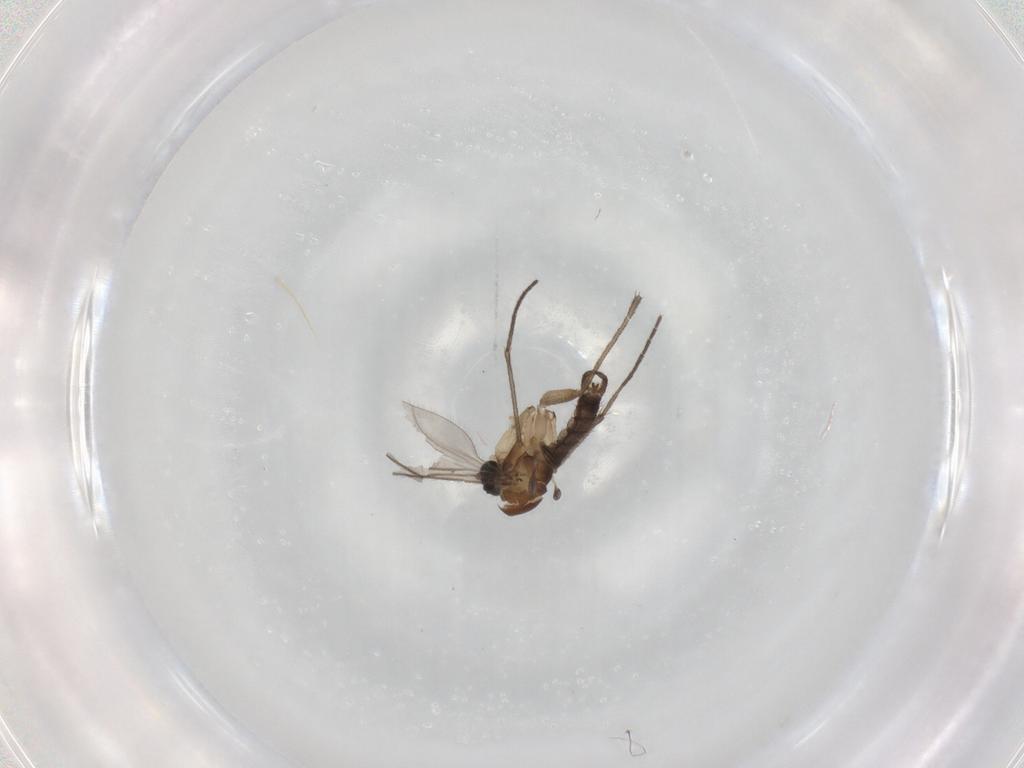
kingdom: Animalia
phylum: Arthropoda
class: Insecta
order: Diptera
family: Sciaridae
